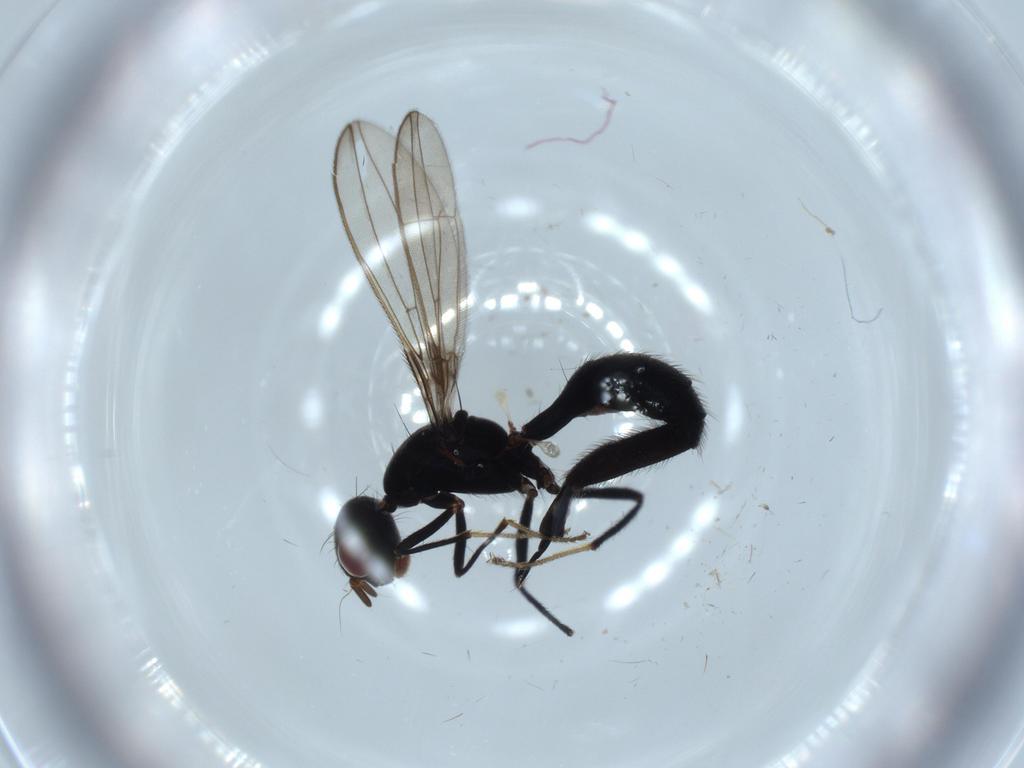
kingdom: Animalia
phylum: Arthropoda
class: Insecta
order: Diptera
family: Richardiidae
